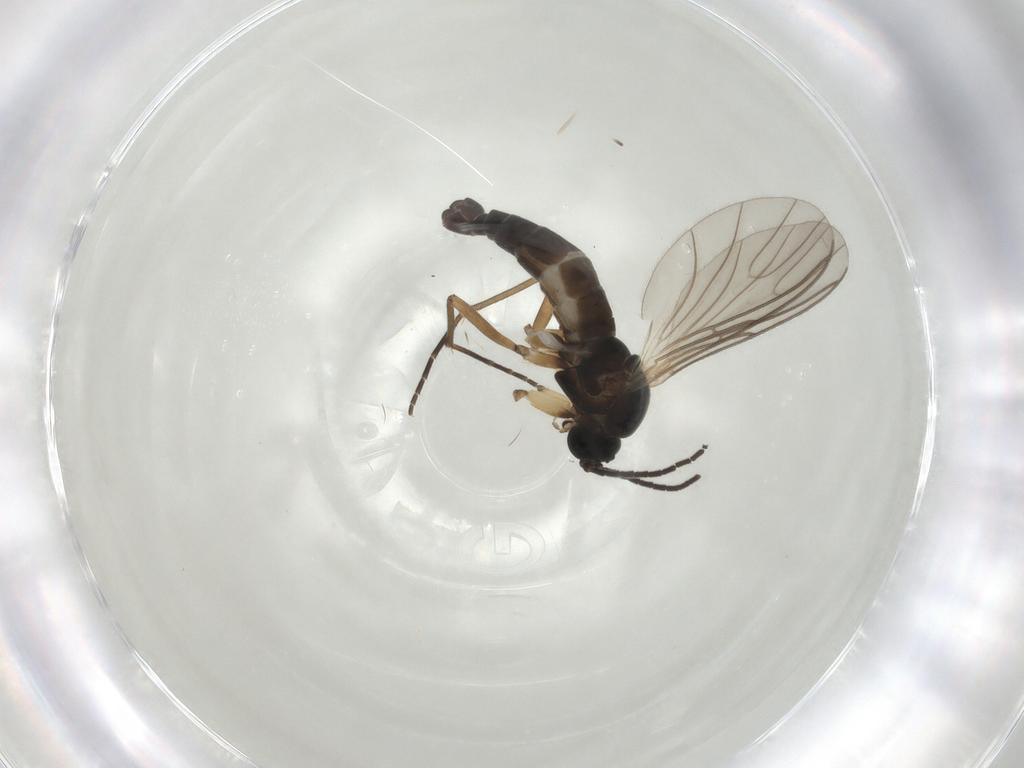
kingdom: Animalia
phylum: Arthropoda
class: Insecta
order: Diptera
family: Sciaridae
